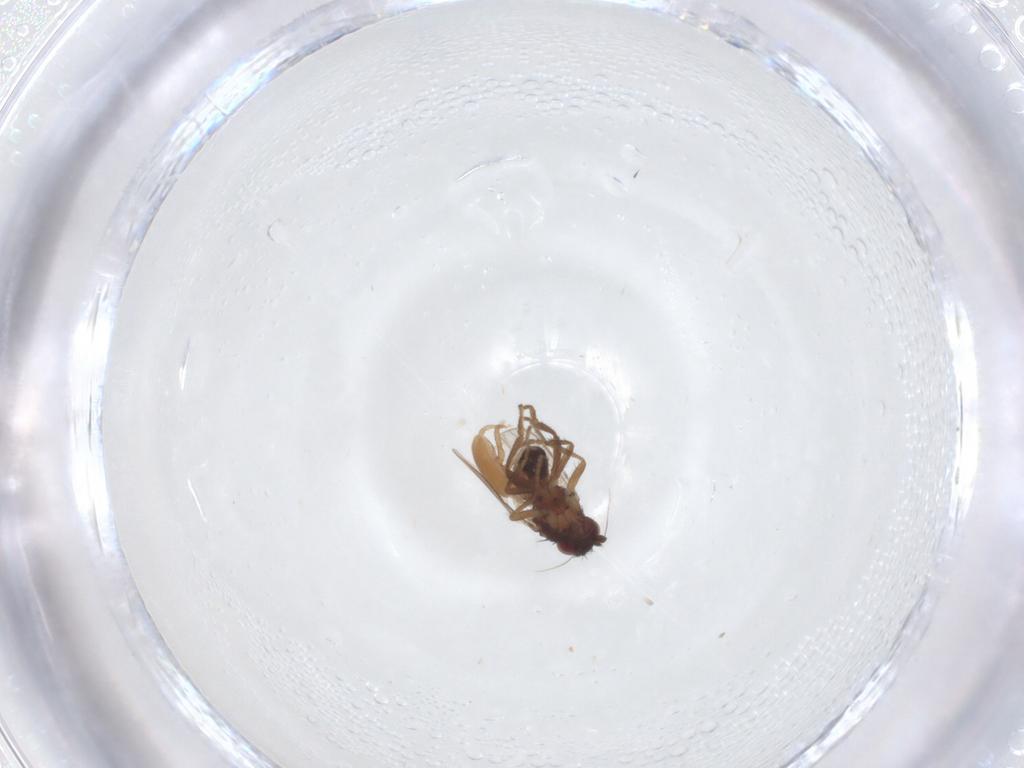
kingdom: Animalia
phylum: Arthropoda
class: Insecta
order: Diptera
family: Sphaeroceridae
